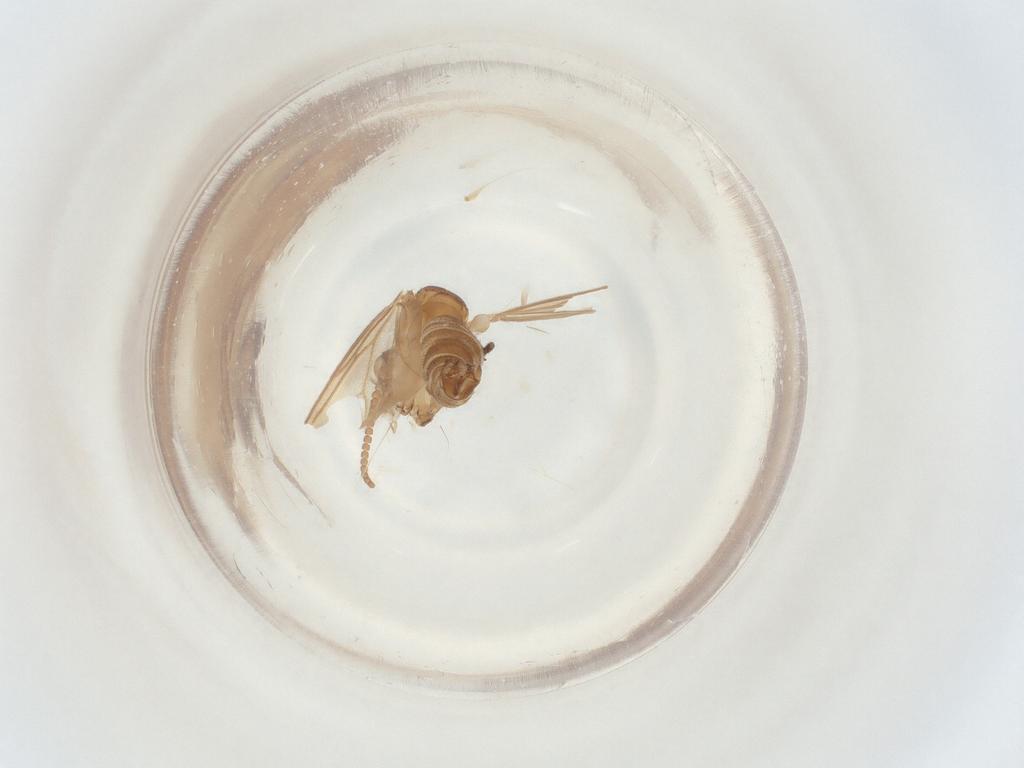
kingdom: Animalia
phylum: Arthropoda
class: Insecta
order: Diptera
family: Mycetophilidae
